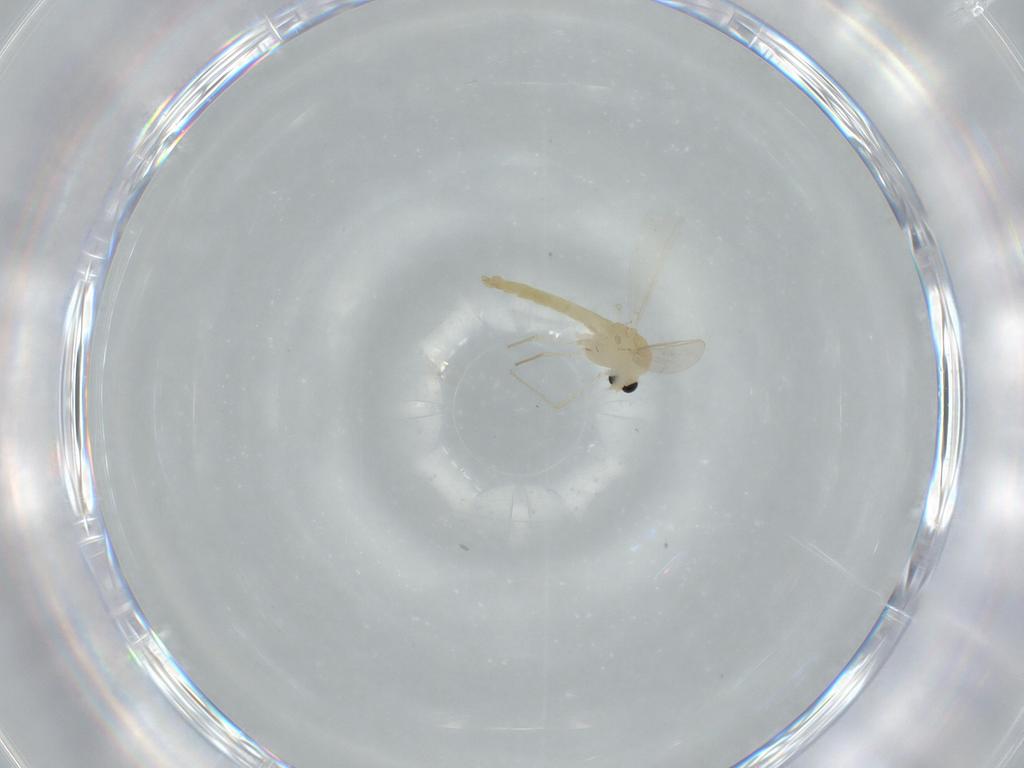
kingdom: Animalia
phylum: Arthropoda
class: Insecta
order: Diptera
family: Chironomidae
